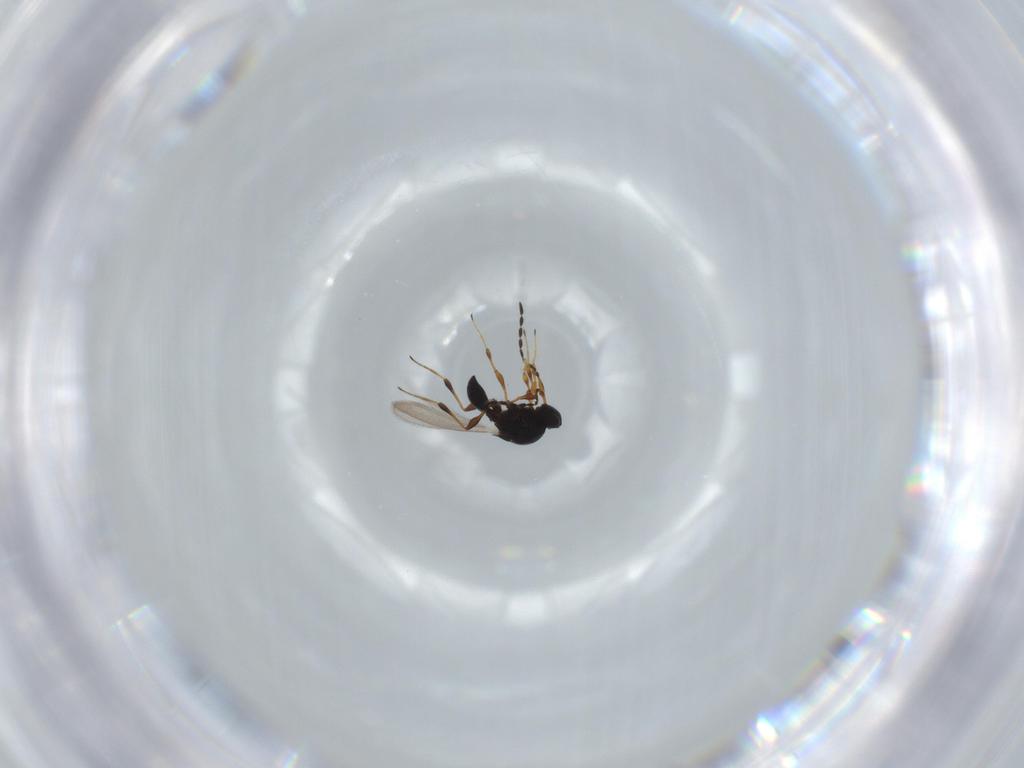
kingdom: Animalia
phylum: Arthropoda
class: Insecta
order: Hymenoptera
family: Platygastridae
